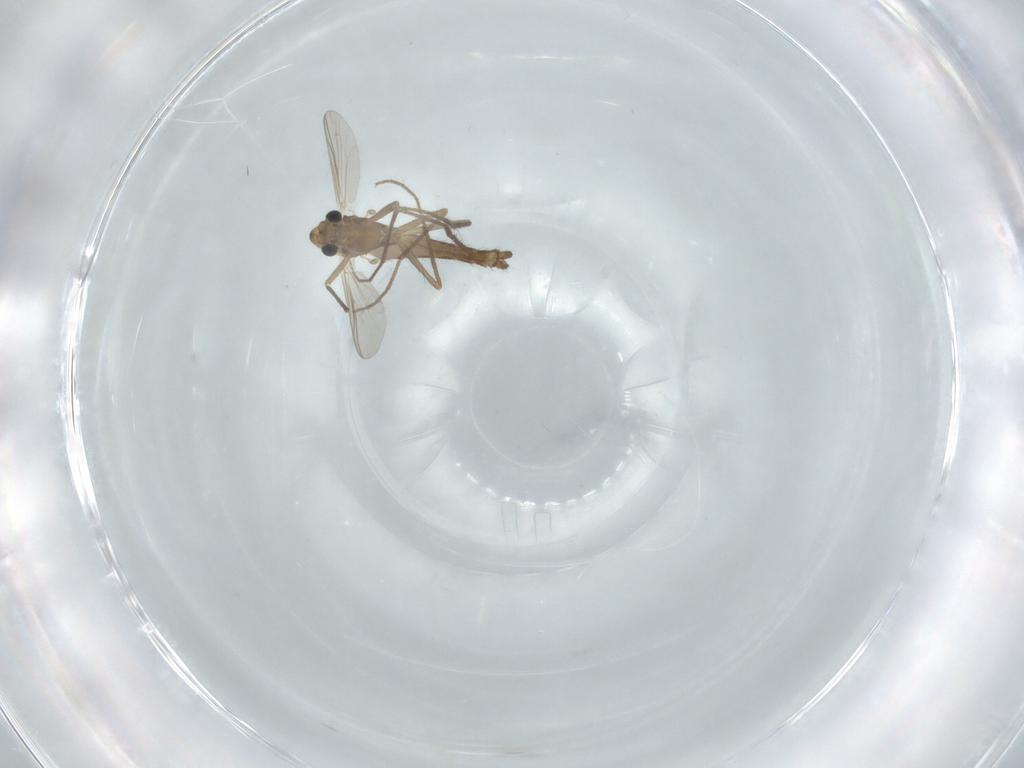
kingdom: Animalia
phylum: Arthropoda
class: Insecta
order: Diptera
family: Chironomidae
